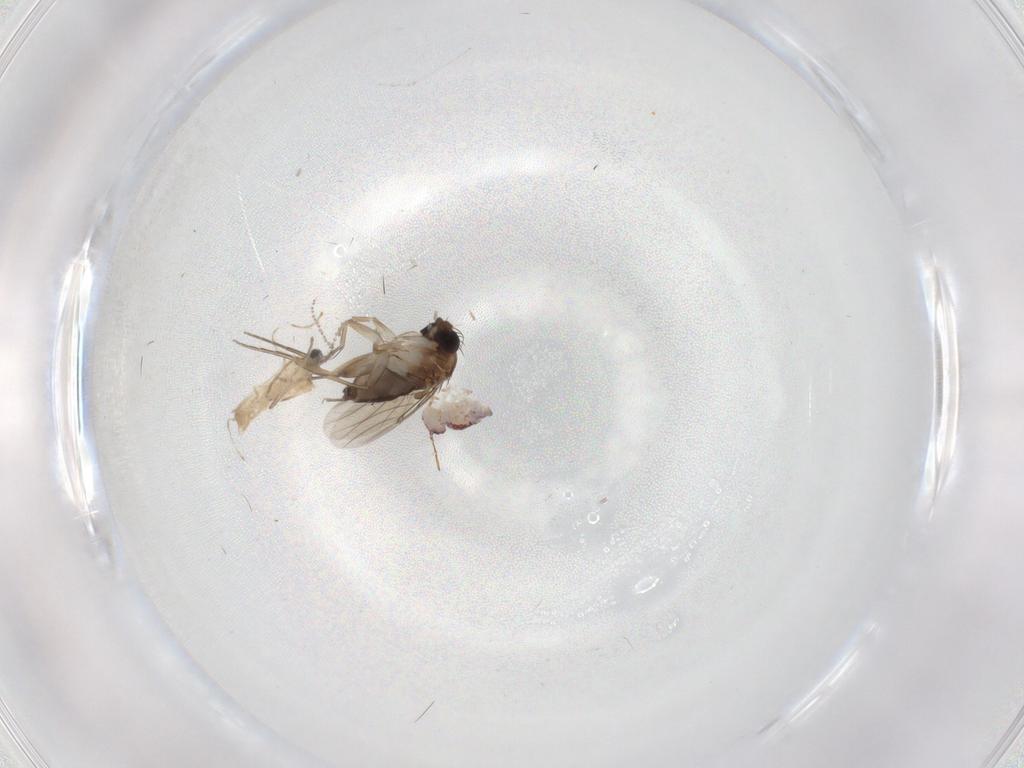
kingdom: Animalia
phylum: Arthropoda
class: Insecta
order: Diptera
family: Phoridae
